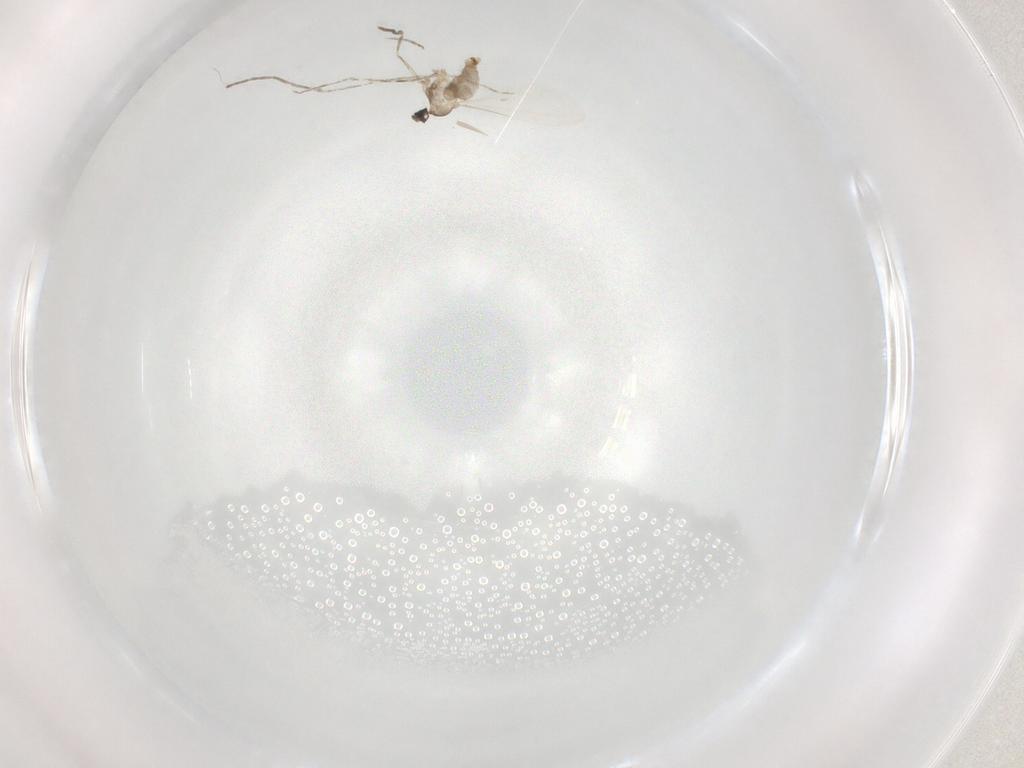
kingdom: Animalia
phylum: Arthropoda
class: Insecta
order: Diptera
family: Cecidomyiidae
